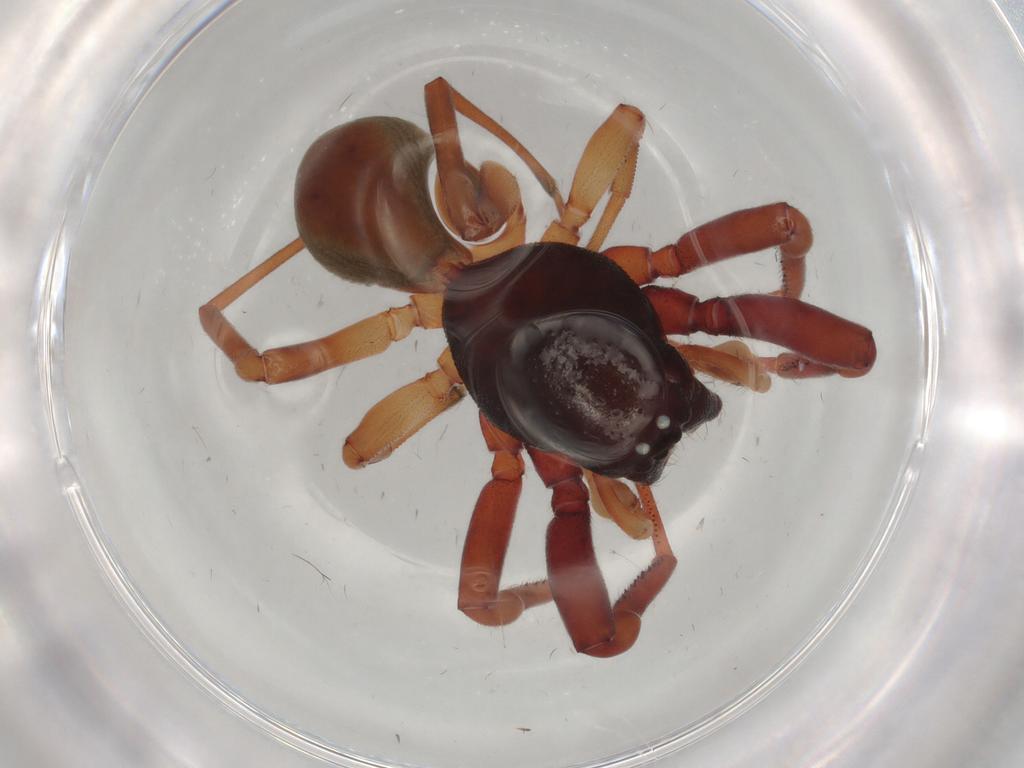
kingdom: Animalia
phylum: Arthropoda
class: Arachnida
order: Araneae
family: Trachelidae
